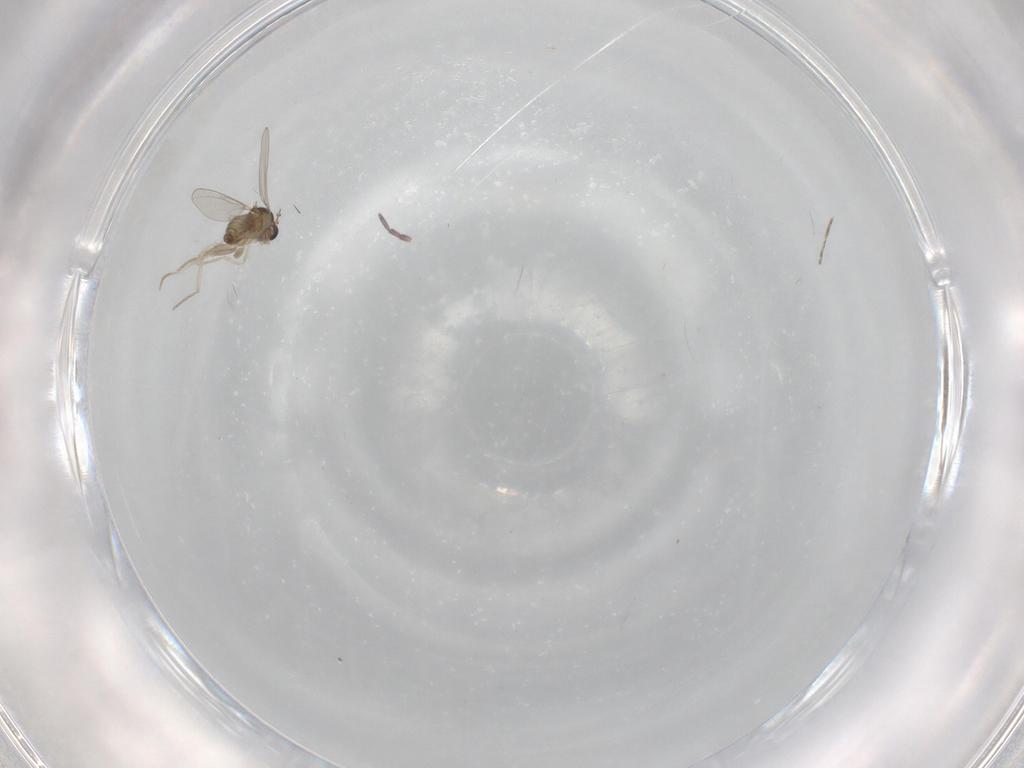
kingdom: Animalia
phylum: Arthropoda
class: Insecta
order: Diptera
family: Cecidomyiidae
